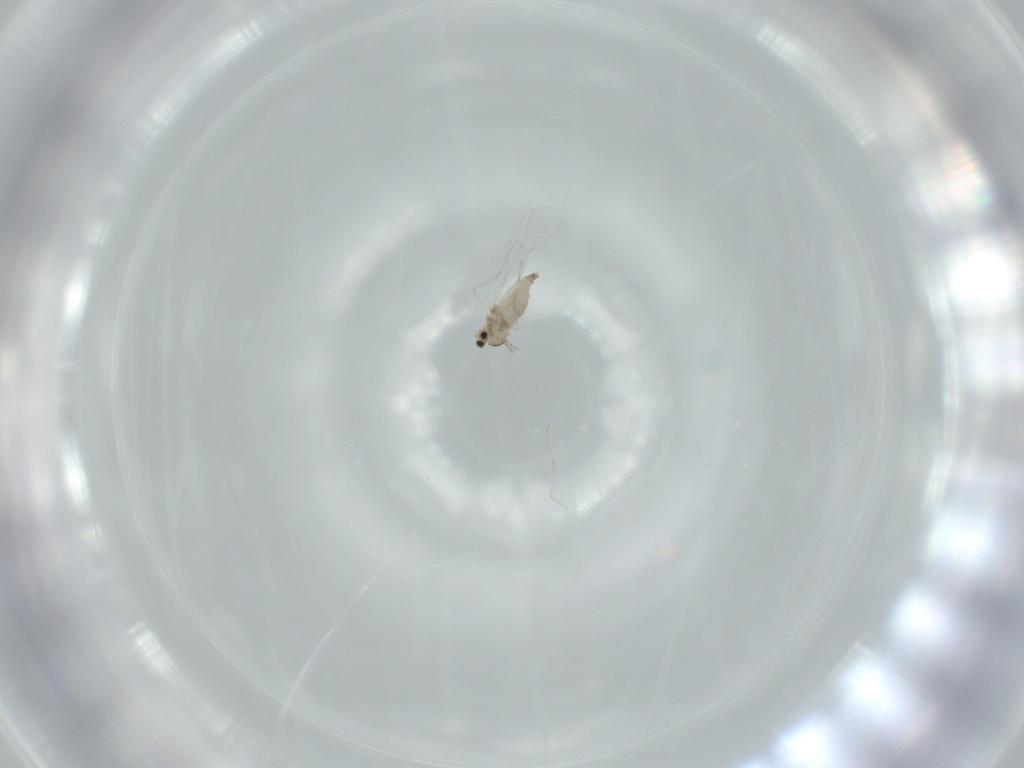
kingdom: Animalia
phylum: Arthropoda
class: Insecta
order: Diptera
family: Cecidomyiidae
